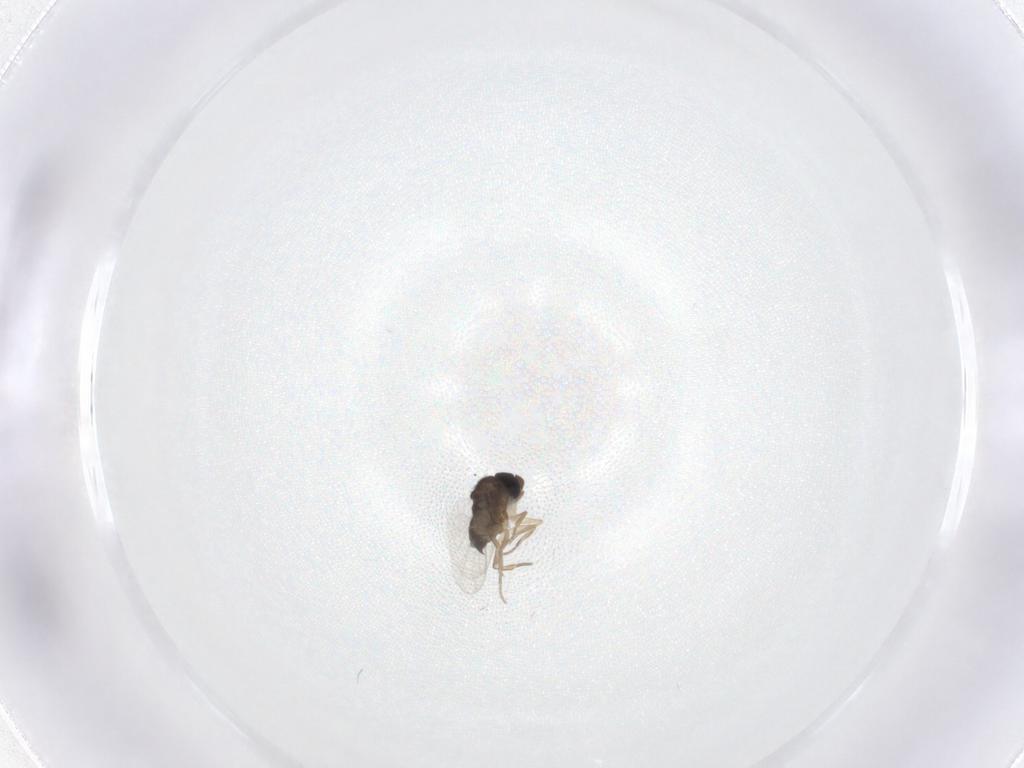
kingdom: Animalia
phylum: Arthropoda
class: Insecta
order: Diptera
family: Phoridae
